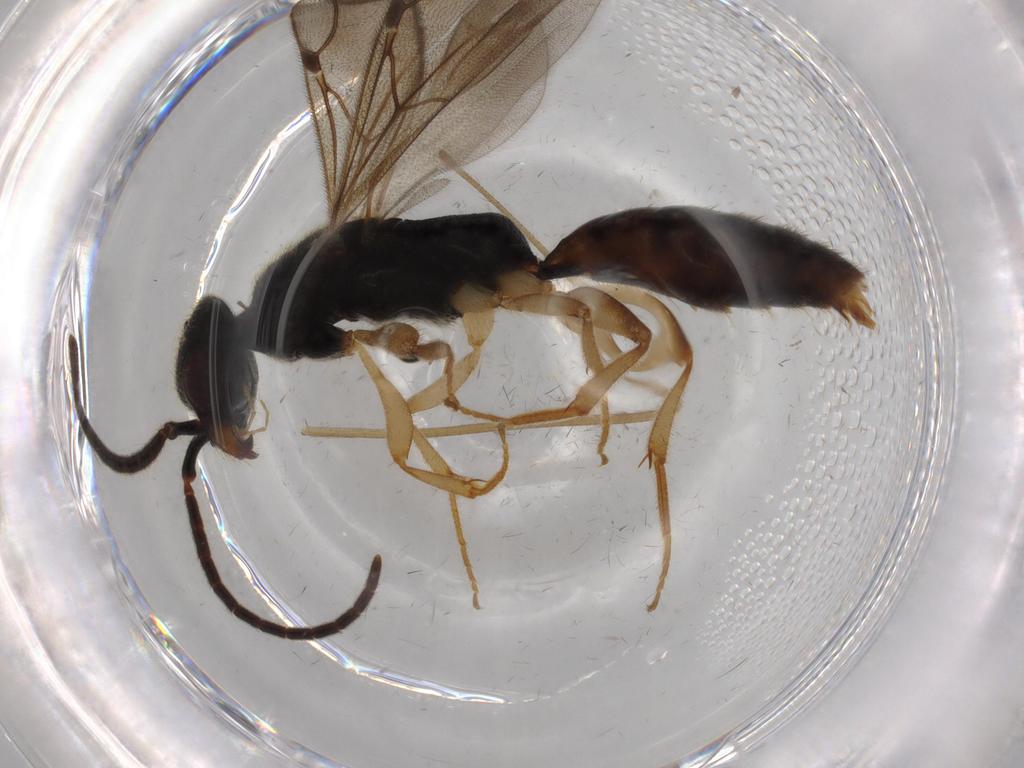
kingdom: Animalia
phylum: Arthropoda
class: Insecta
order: Hymenoptera
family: Bethylidae
